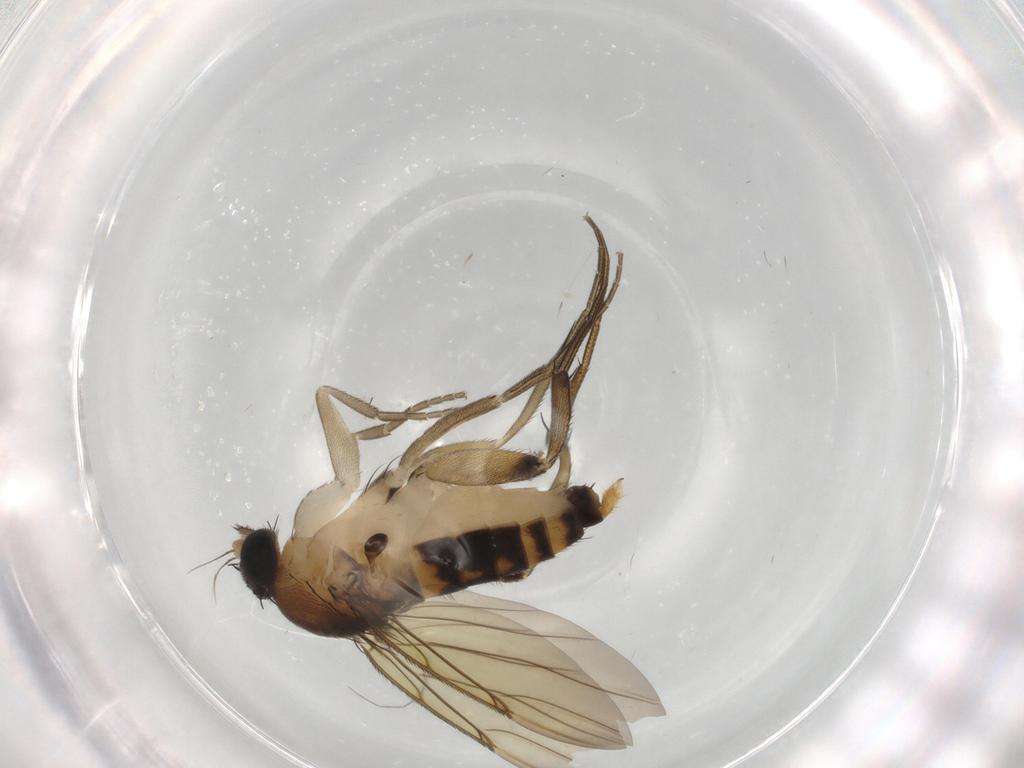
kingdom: Animalia
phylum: Arthropoda
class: Insecta
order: Diptera
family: Phoridae
